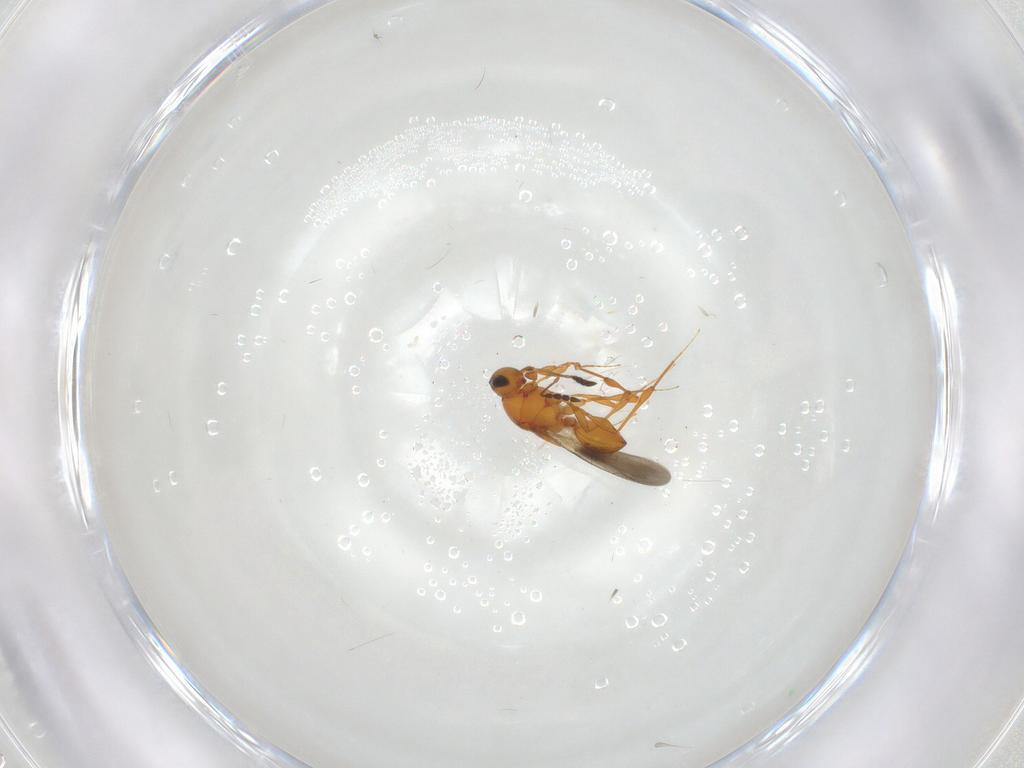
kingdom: Animalia
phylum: Arthropoda
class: Insecta
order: Hymenoptera
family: Platygastridae
